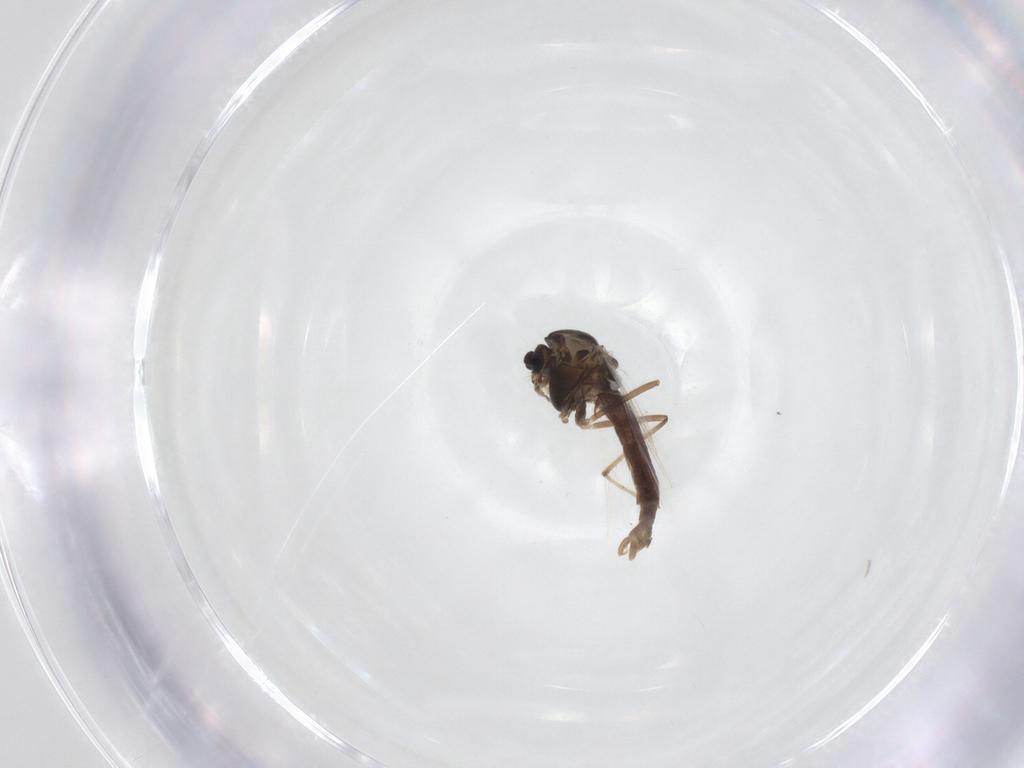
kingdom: Animalia
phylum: Arthropoda
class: Insecta
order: Diptera
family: Chironomidae
